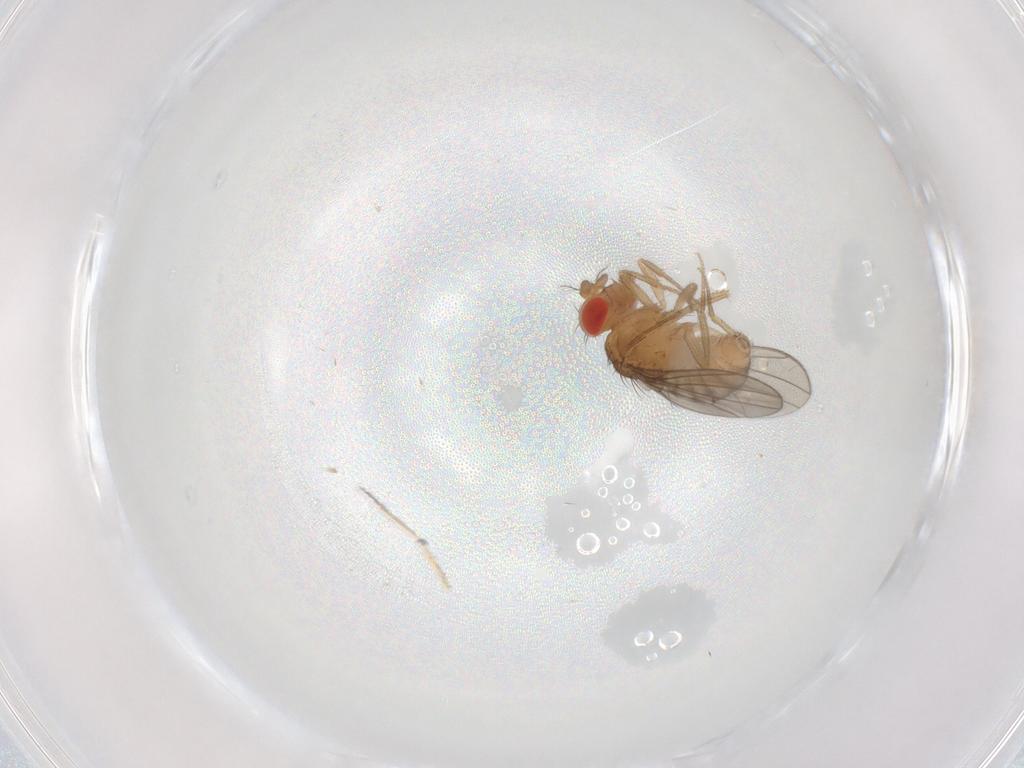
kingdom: Animalia
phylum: Arthropoda
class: Insecta
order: Diptera
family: Drosophilidae
